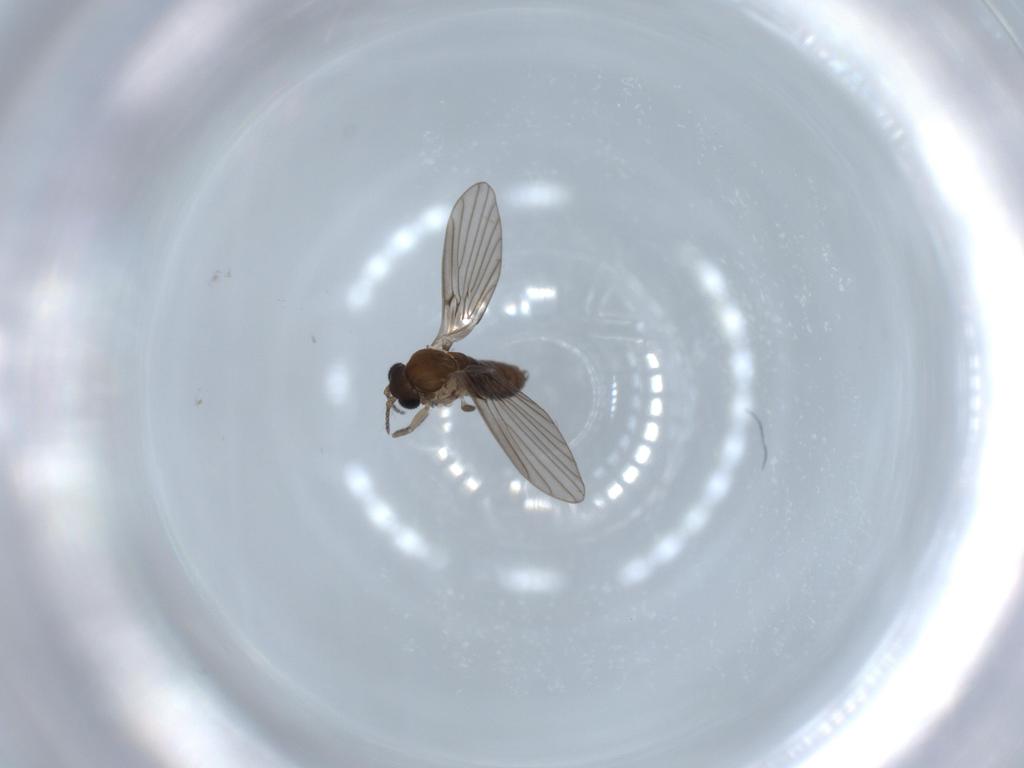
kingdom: Animalia
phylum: Arthropoda
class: Insecta
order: Diptera
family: Psychodidae
